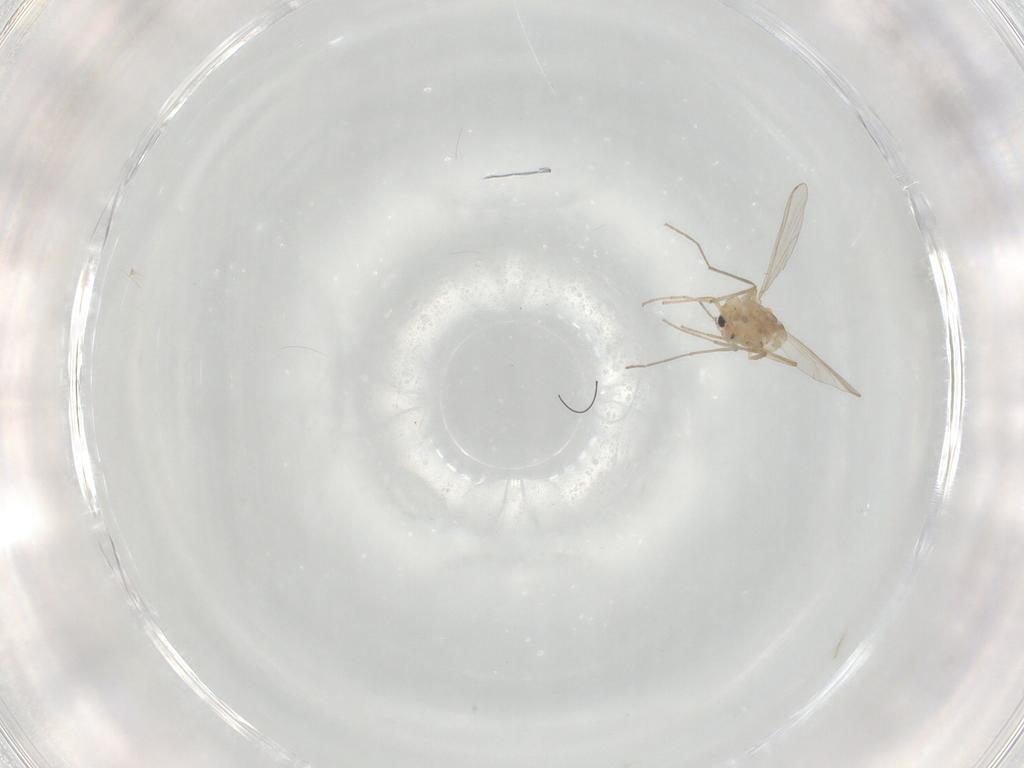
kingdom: Animalia
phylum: Arthropoda
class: Insecta
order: Diptera
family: Chironomidae
